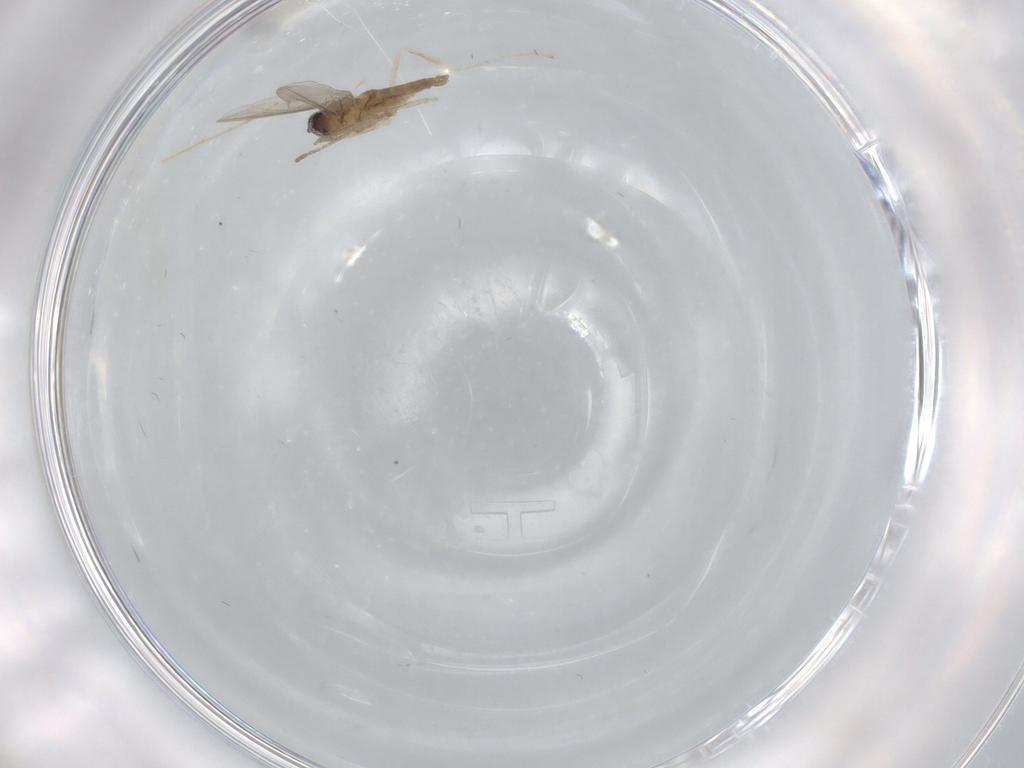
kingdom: Animalia
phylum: Arthropoda
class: Insecta
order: Diptera
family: Cecidomyiidae
